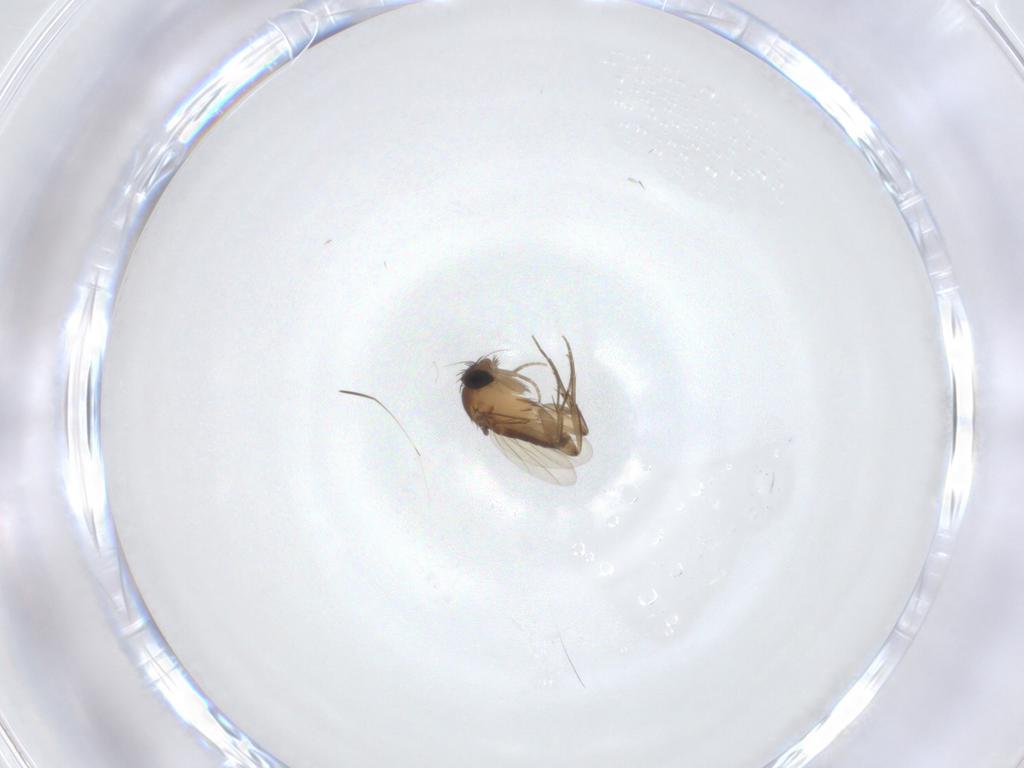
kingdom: Animalia
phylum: Arthropoda
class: Insecta
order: Diptera
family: Phoridae
